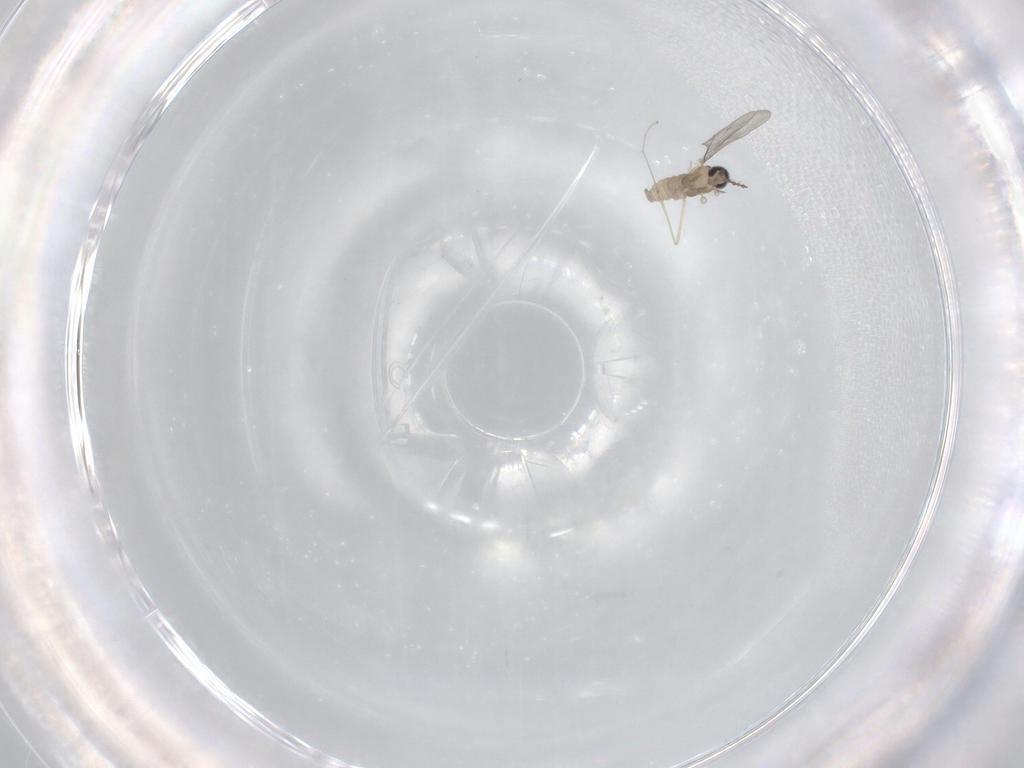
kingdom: Animalia
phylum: Arthropoda
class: Insecta
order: Diptera
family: Cecidomyiidae
